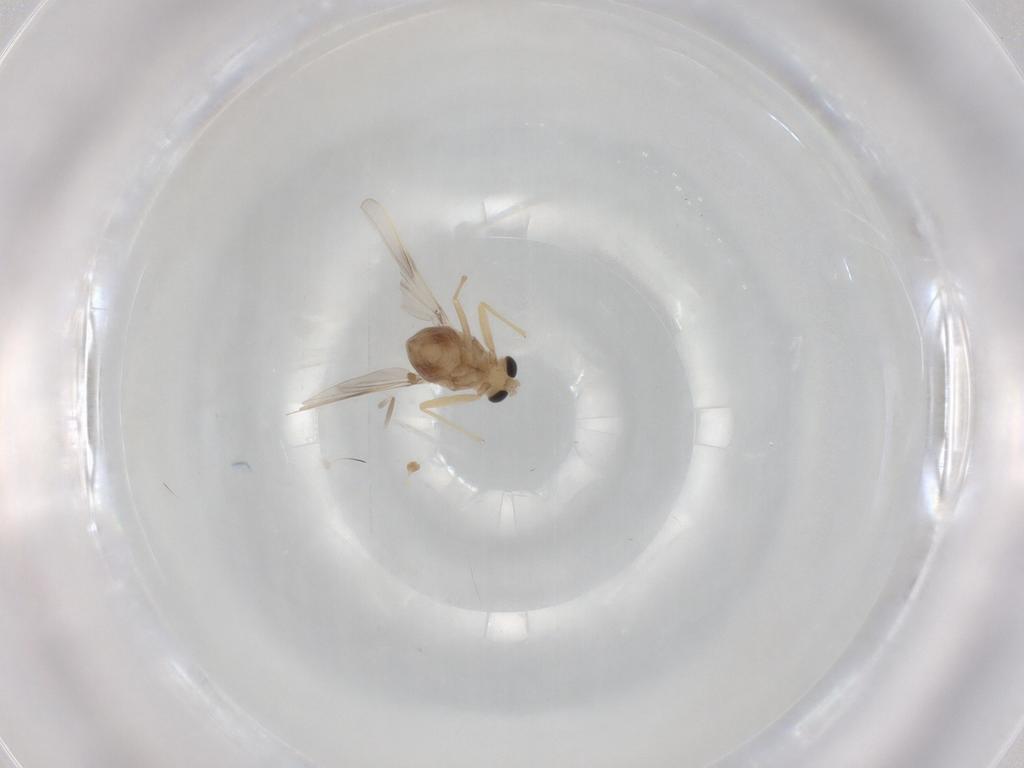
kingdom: Animalia
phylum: Arthropoda
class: Insecta
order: Diptera
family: Chironomidae
